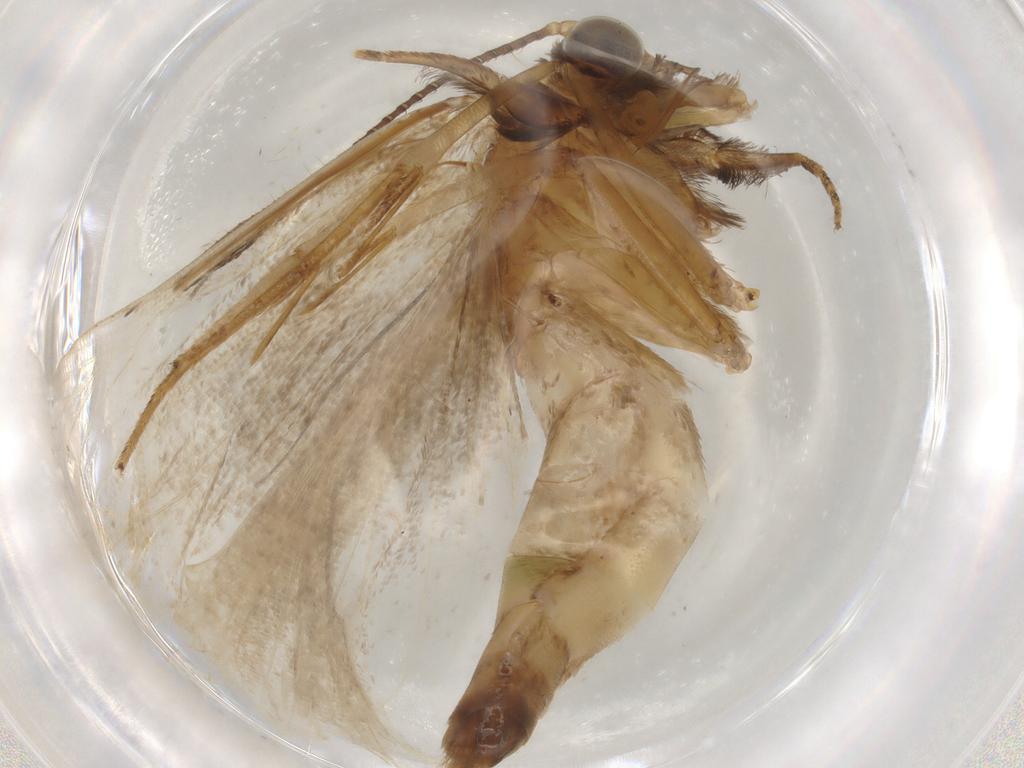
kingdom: Animalia
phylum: Arthropoda
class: Insecta
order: Lepidoptera
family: Erebidae
